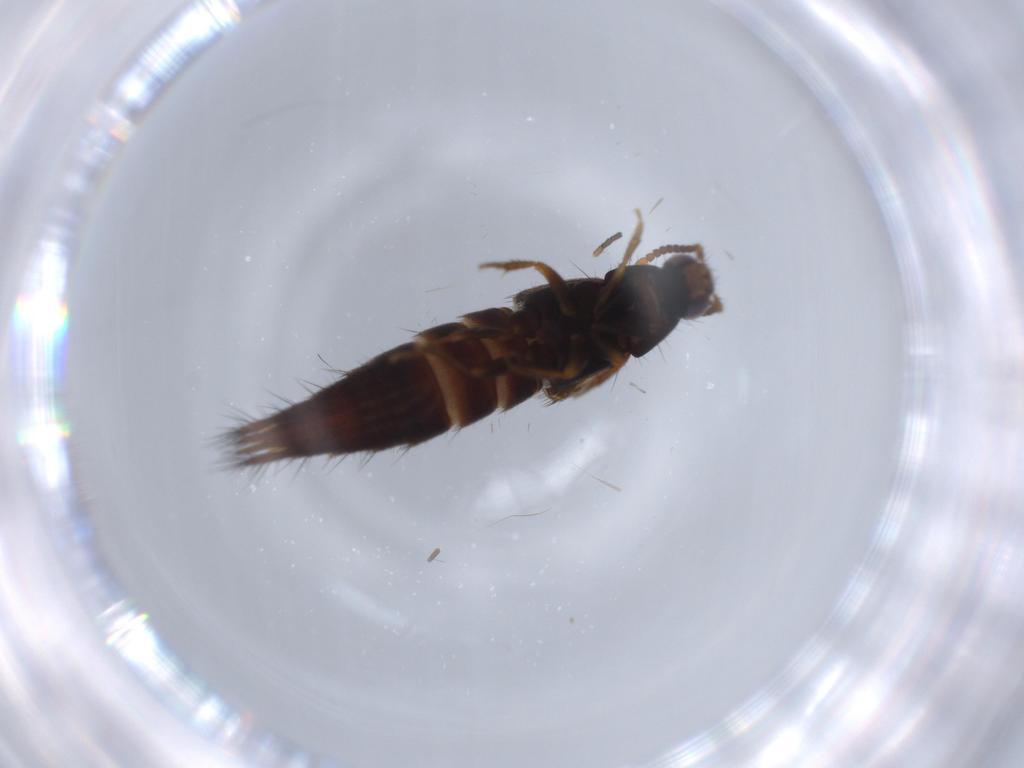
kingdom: Animalia
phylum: Arthropoda
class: Insecta
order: Coleoptera
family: Staphylinidae
